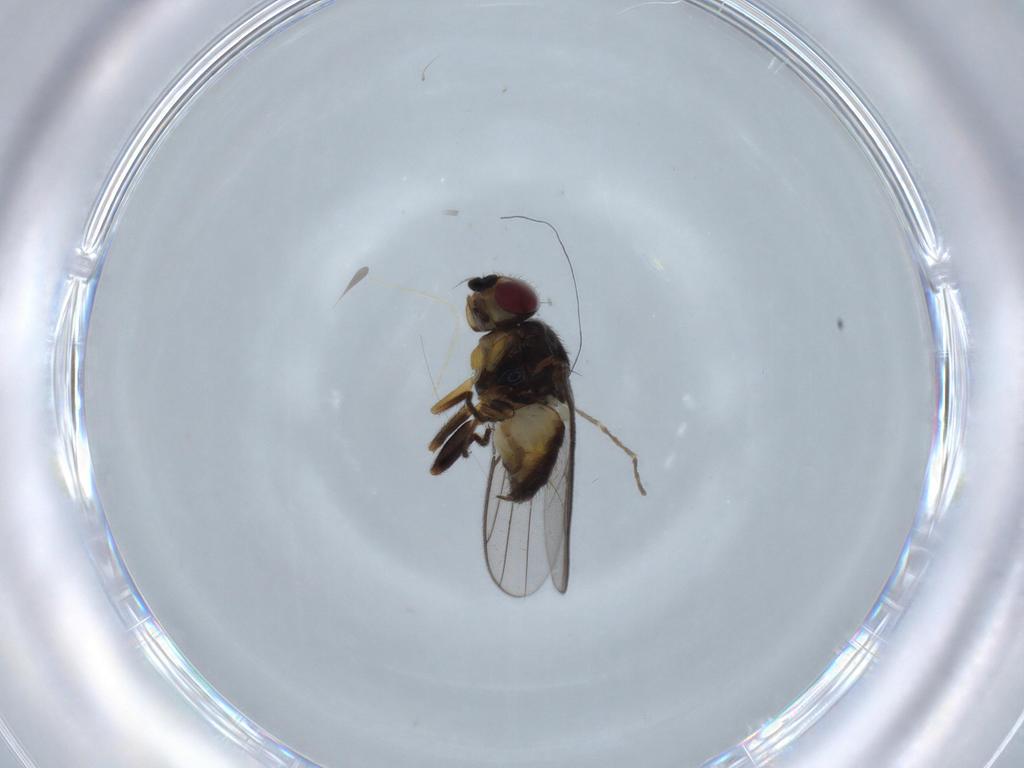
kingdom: Animalia
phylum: Arthropoda
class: Insecta
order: Diptera
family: Chloropidae
